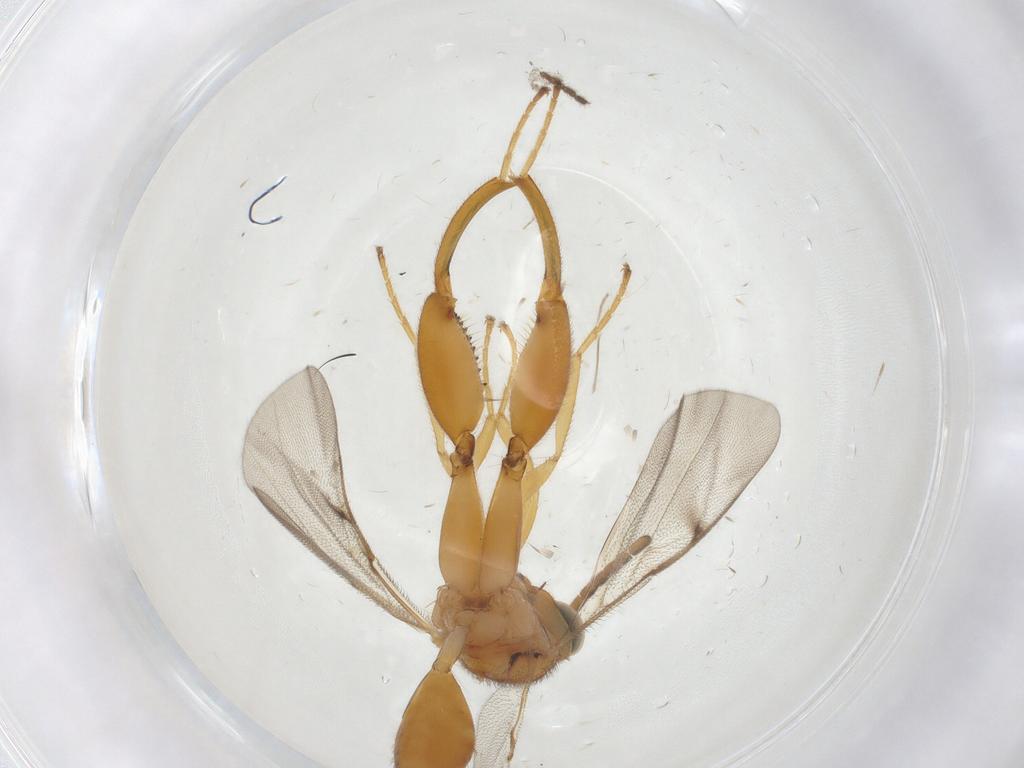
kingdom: Animalia
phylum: Arthropoda
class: Insecta
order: Hymenoptera
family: Chalcididae
